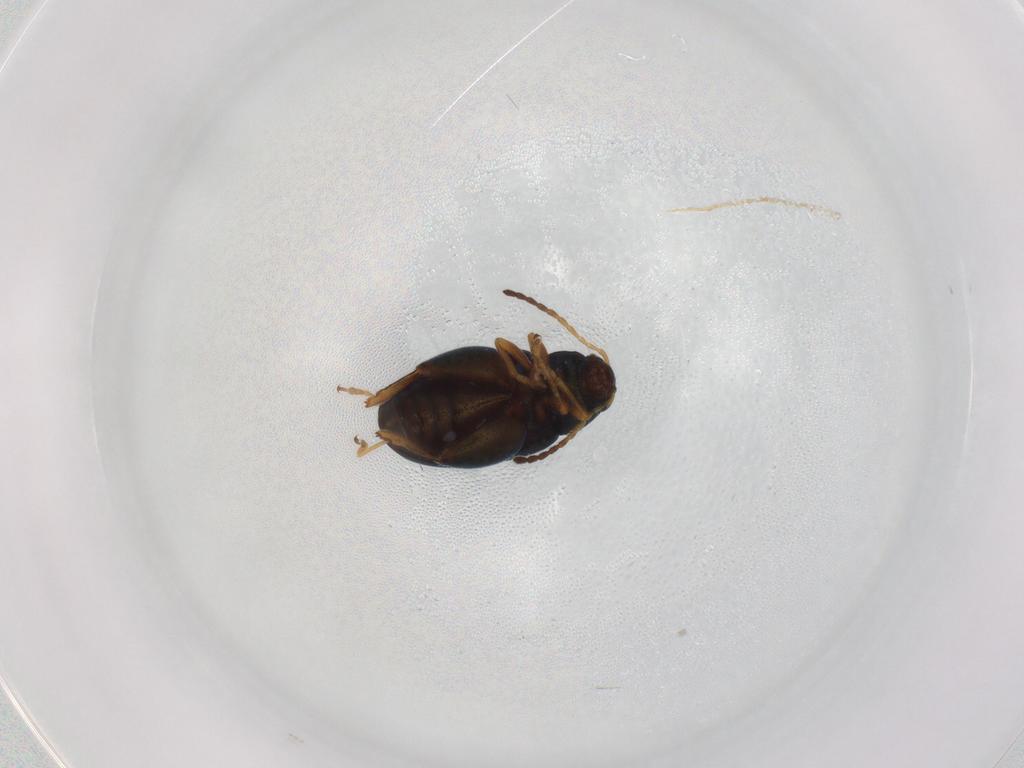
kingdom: Animalia
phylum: Arthropoda
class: Insecta
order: Coleoptera
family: Chrysomelidae
